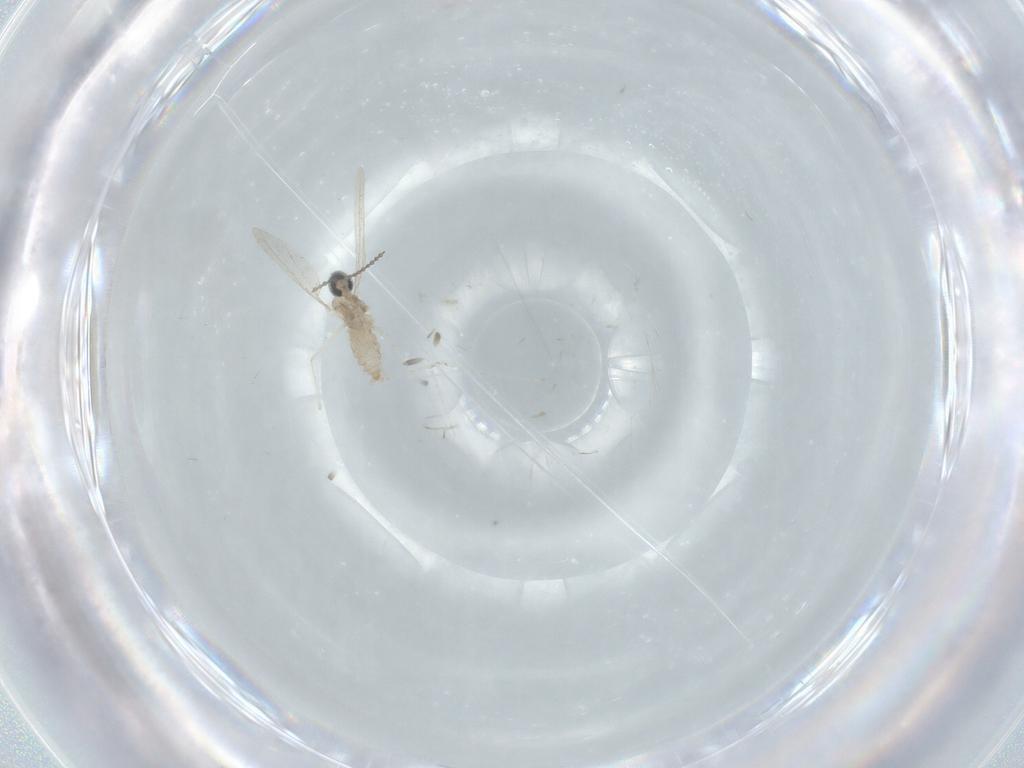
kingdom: Animalia
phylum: Arthropoda
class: Insecta
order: Diptera
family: Cecidomyiidae
